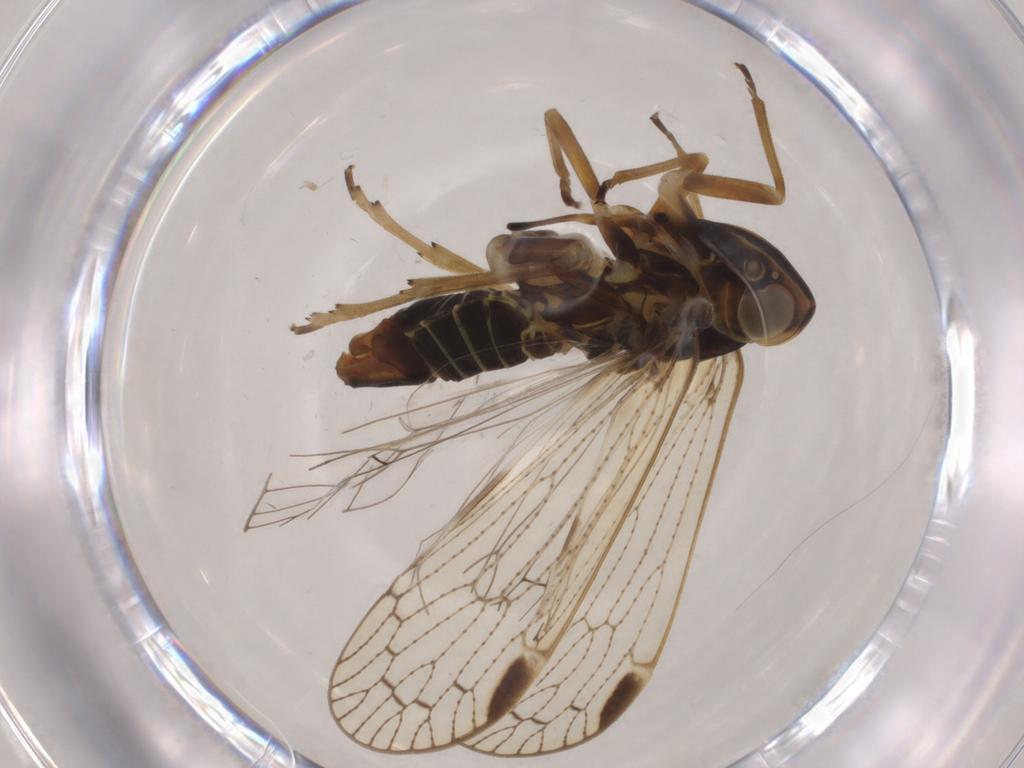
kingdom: Animalia
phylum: Arthropoda
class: Insecta
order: Hemiptera
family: Cixiidae
